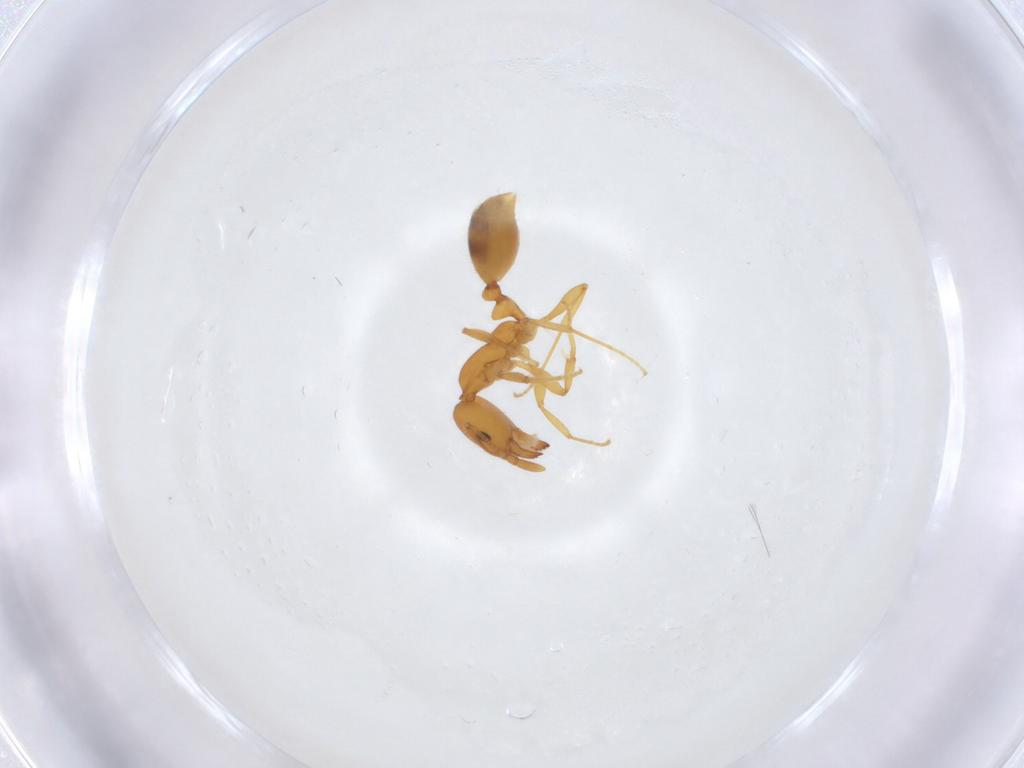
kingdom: Animalia
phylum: Arthropoda
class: Insecta
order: Hymenoptera
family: Formicidae
